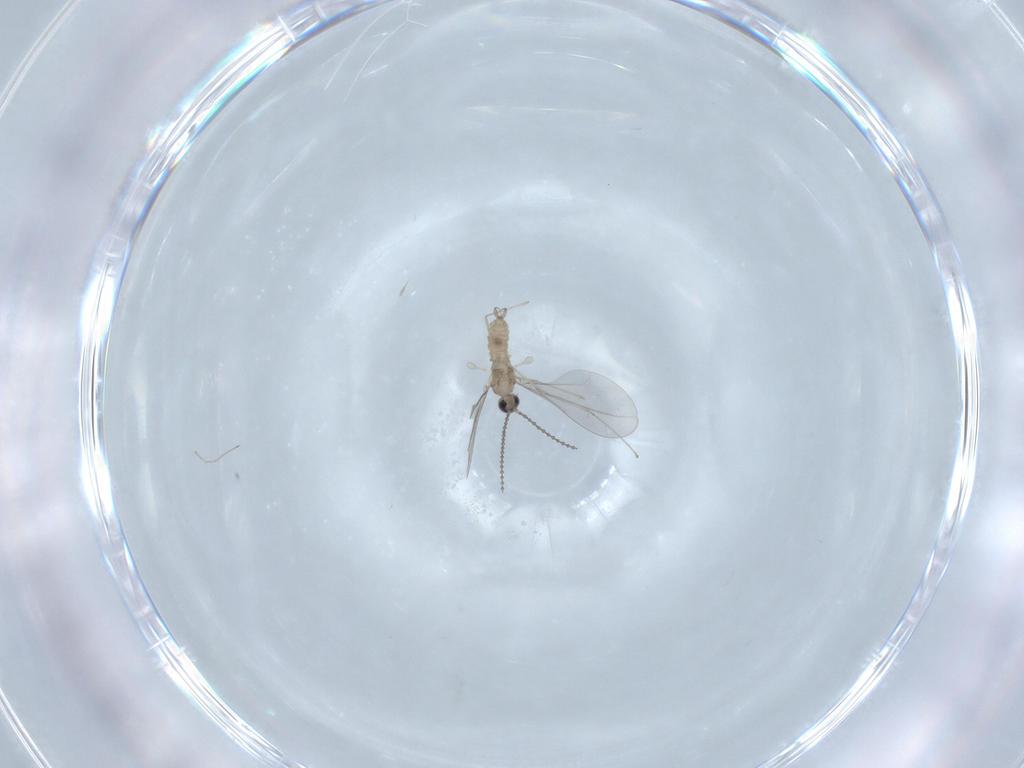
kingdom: Animalia
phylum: Arthropoda
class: Insecta
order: Diptera
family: Cecidomyiidae
